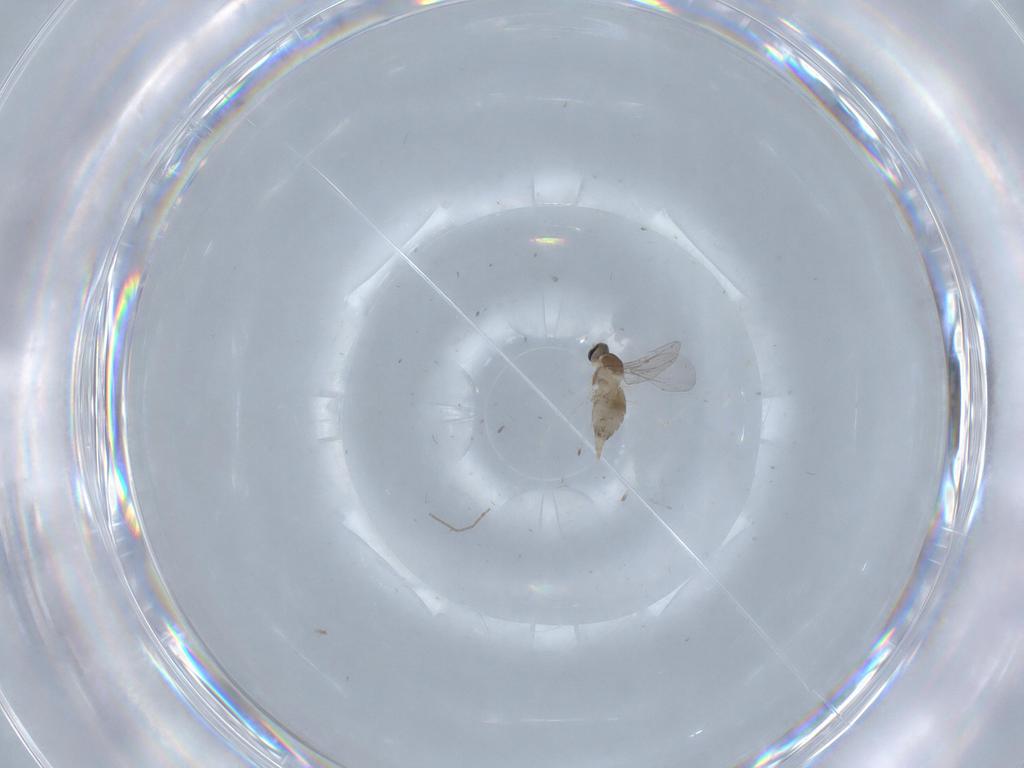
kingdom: Animalia
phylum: Arthropoda
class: Insecta
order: Diptera
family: Cecidomyiidae
